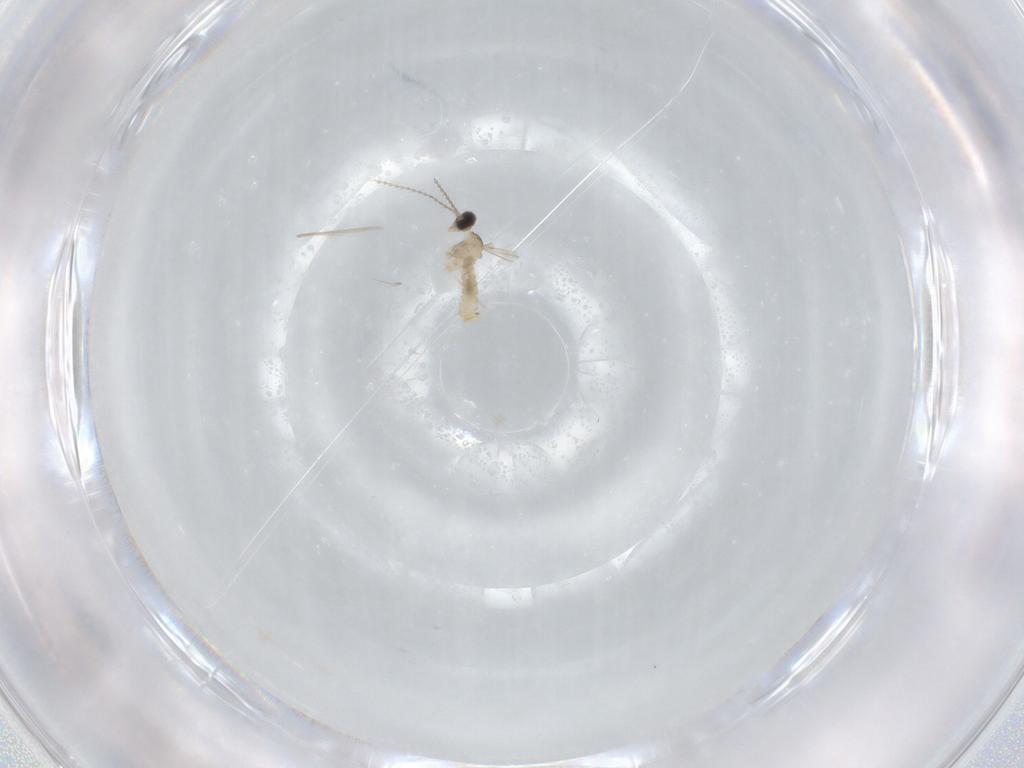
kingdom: Animalia
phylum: Arthropoda
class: Insecta
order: Diptera
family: Cecidomyiidae
